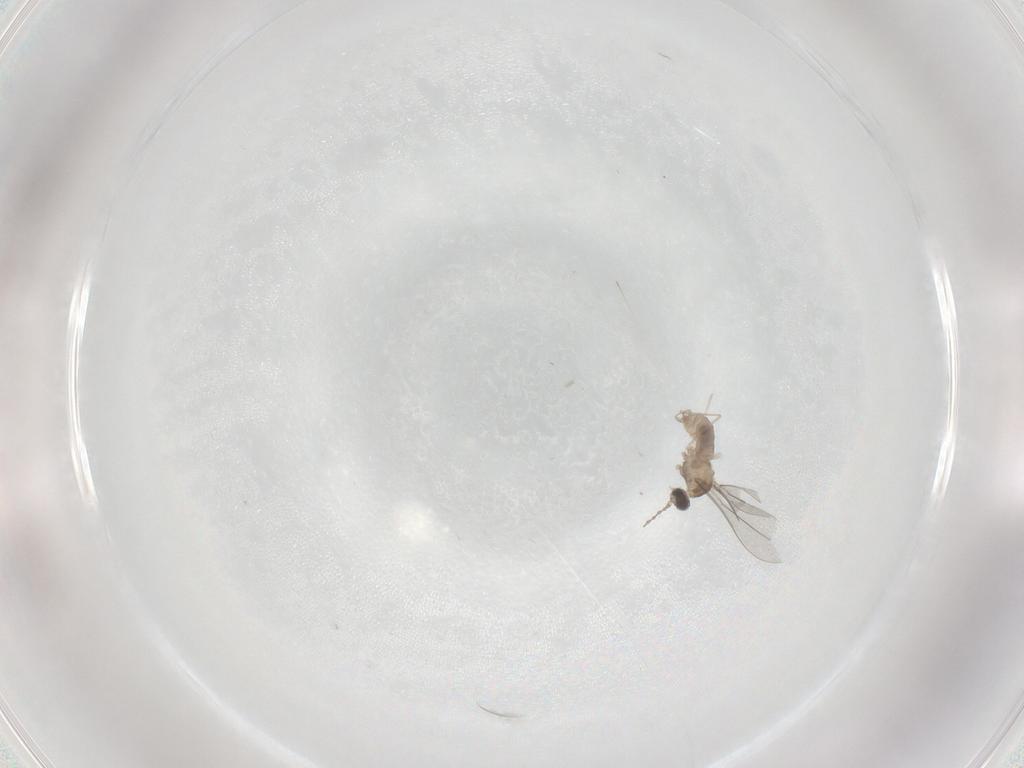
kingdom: Animalia
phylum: Arthropoda
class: Insecta
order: Diptera
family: Cecidomyiidae
